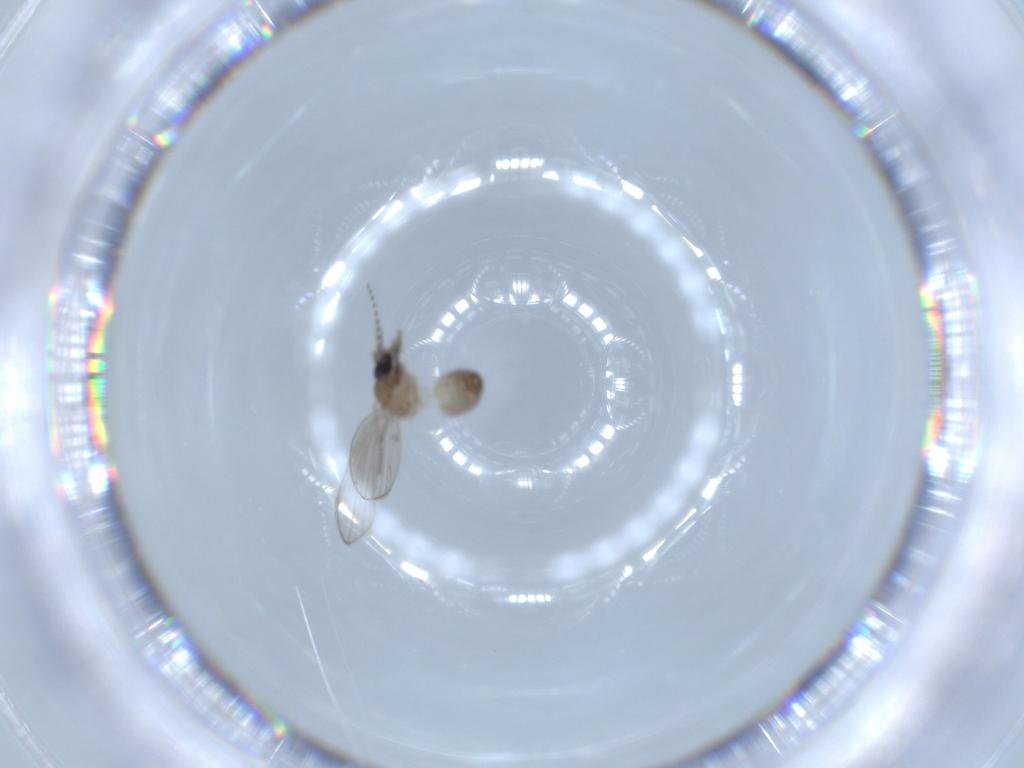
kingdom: Animalia
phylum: Arthropoda
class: Insecta
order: Diptera
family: Psychodidae
